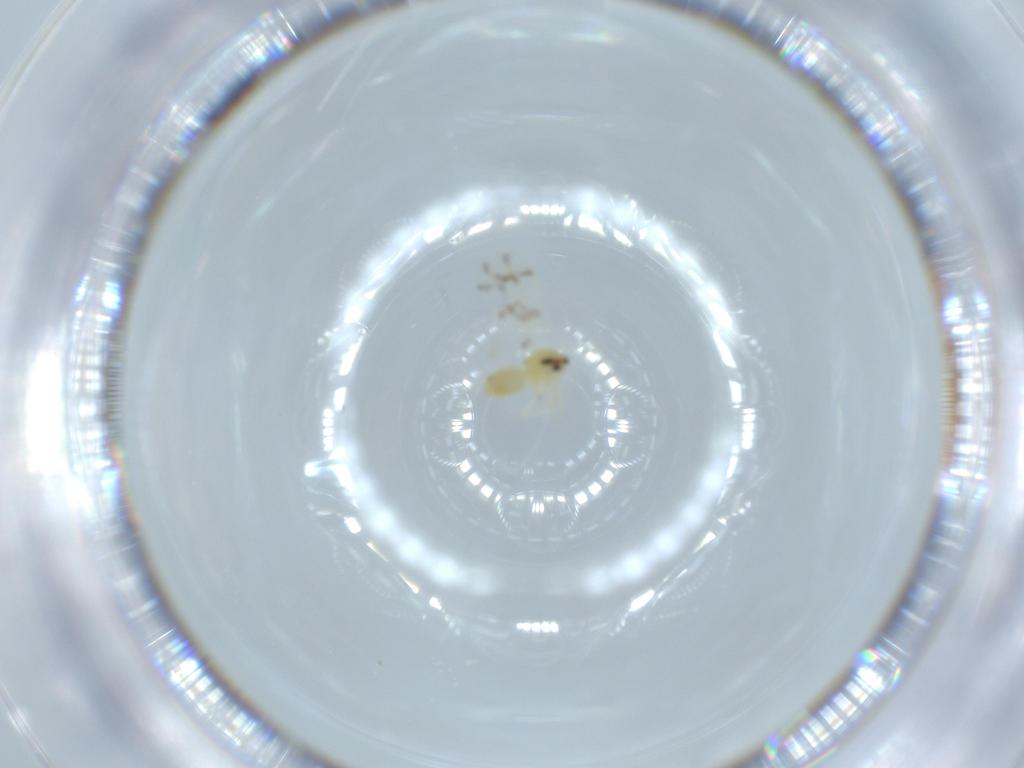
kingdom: Animalia
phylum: Arthropoda
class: Insecta
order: Hemiptera
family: Aleyrodidae
